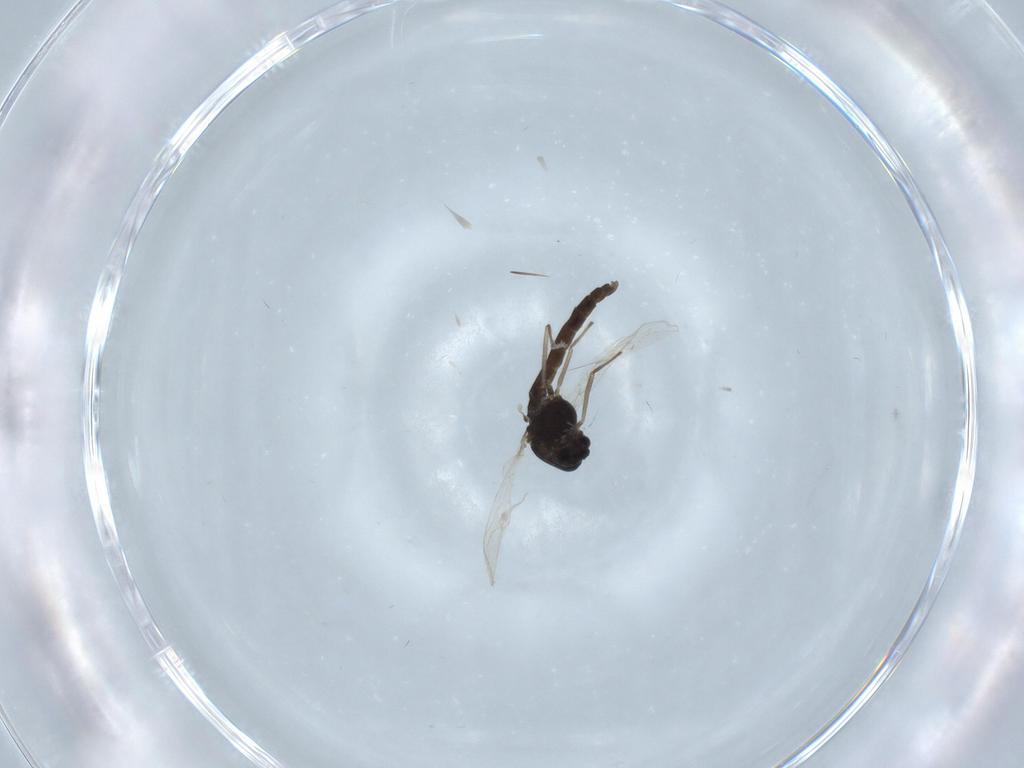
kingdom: Animalia
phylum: Arthropoda
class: Insecta
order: Diptera
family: Chironomidae
